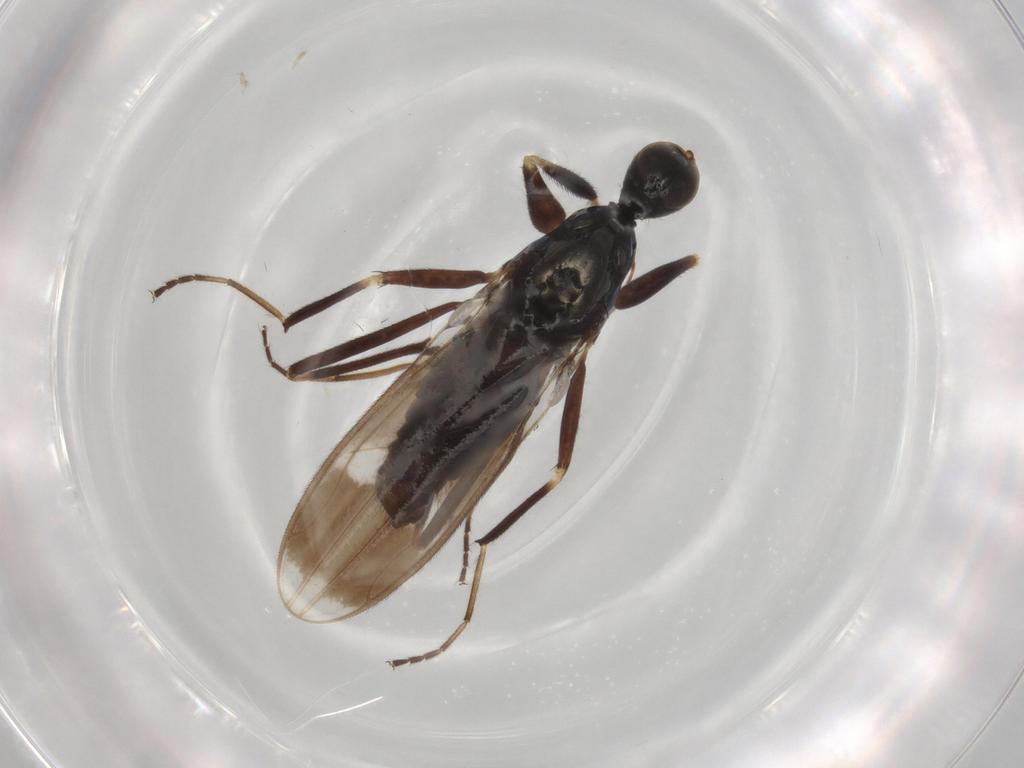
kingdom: Animalia
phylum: Arthropoda
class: Insecta
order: Diptera
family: Hybotidae
